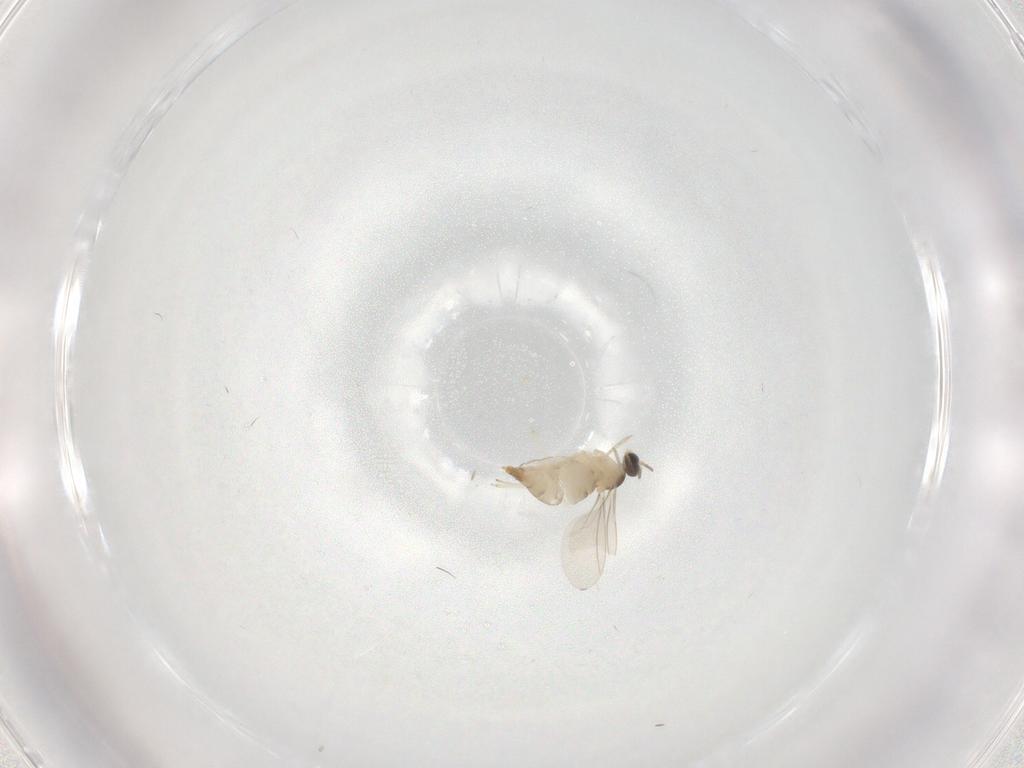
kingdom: Animalia
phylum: Arthropoda
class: Insecta
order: Diptera
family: Cecidomyiidae
